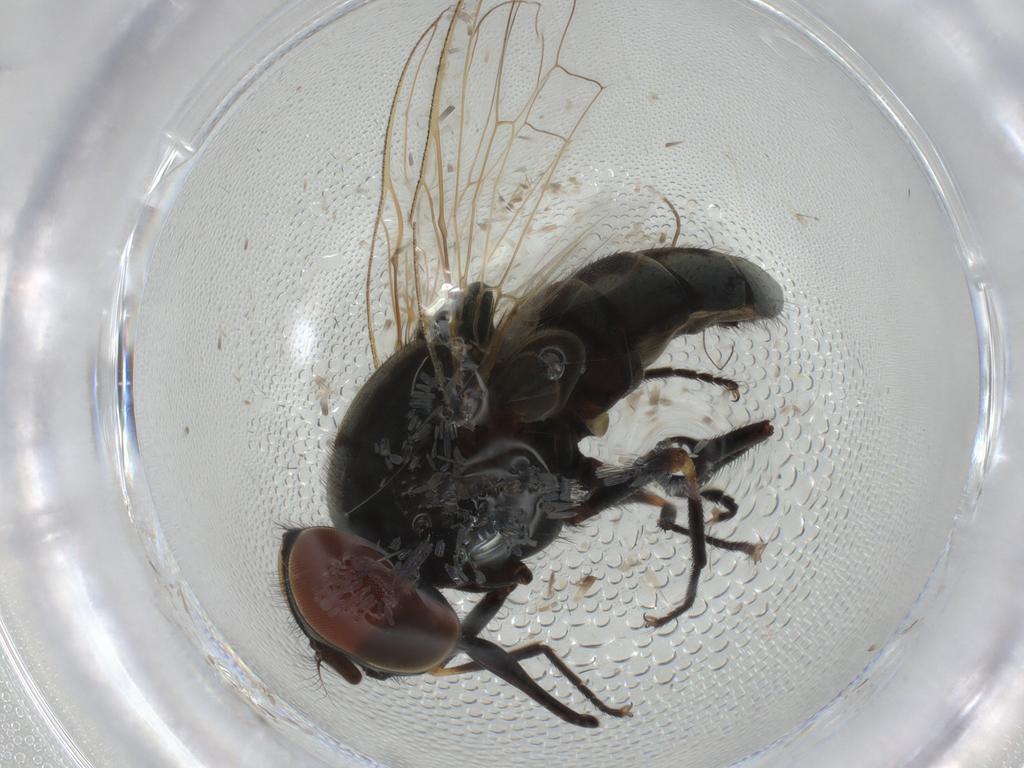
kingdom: Animalia
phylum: Arthropoda
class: Insecta
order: Diptera
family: Muscidae
